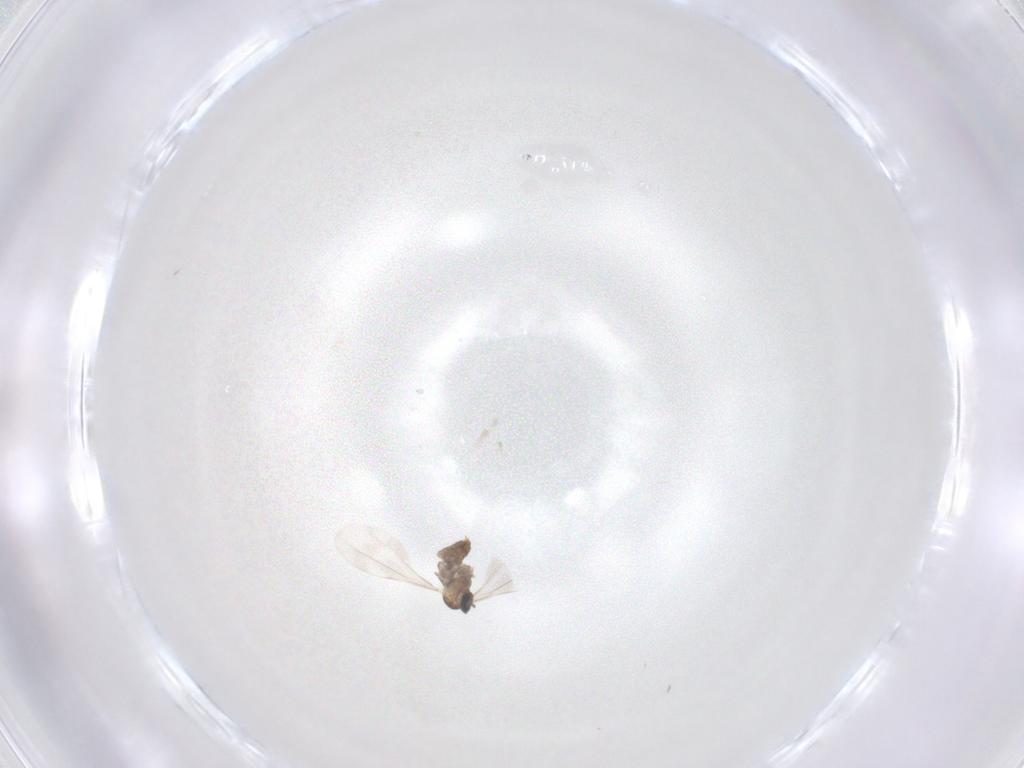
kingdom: Animalia
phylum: Arthropoda
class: Insecta
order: Diptera
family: Cecidomyiidae
